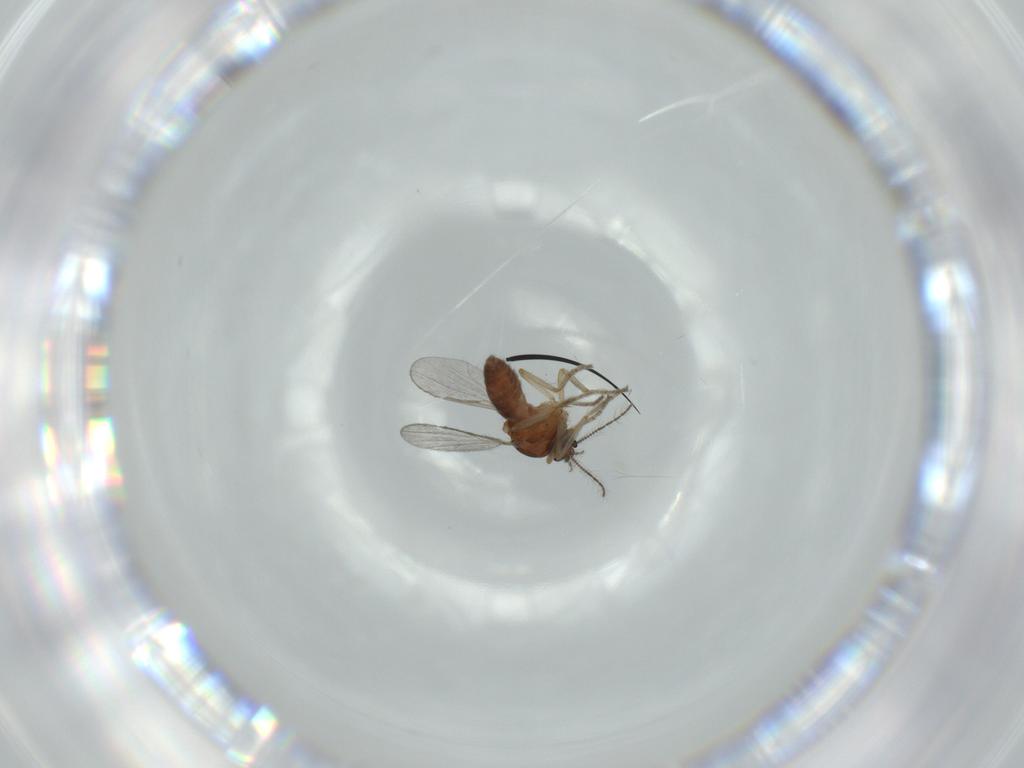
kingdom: Animalia
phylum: Arthropoda
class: Insecta
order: Diptera
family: Ceratopogonidae
